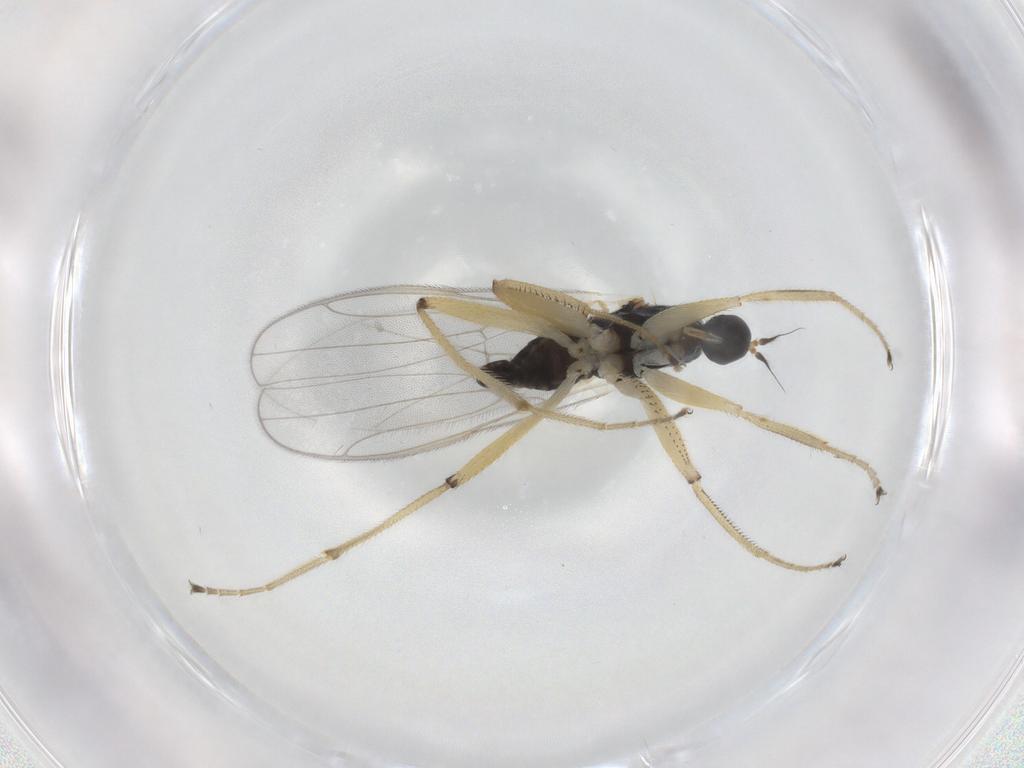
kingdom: Animalia
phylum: Arthropoda
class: Insecta
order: Diptera
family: Hybotidae
